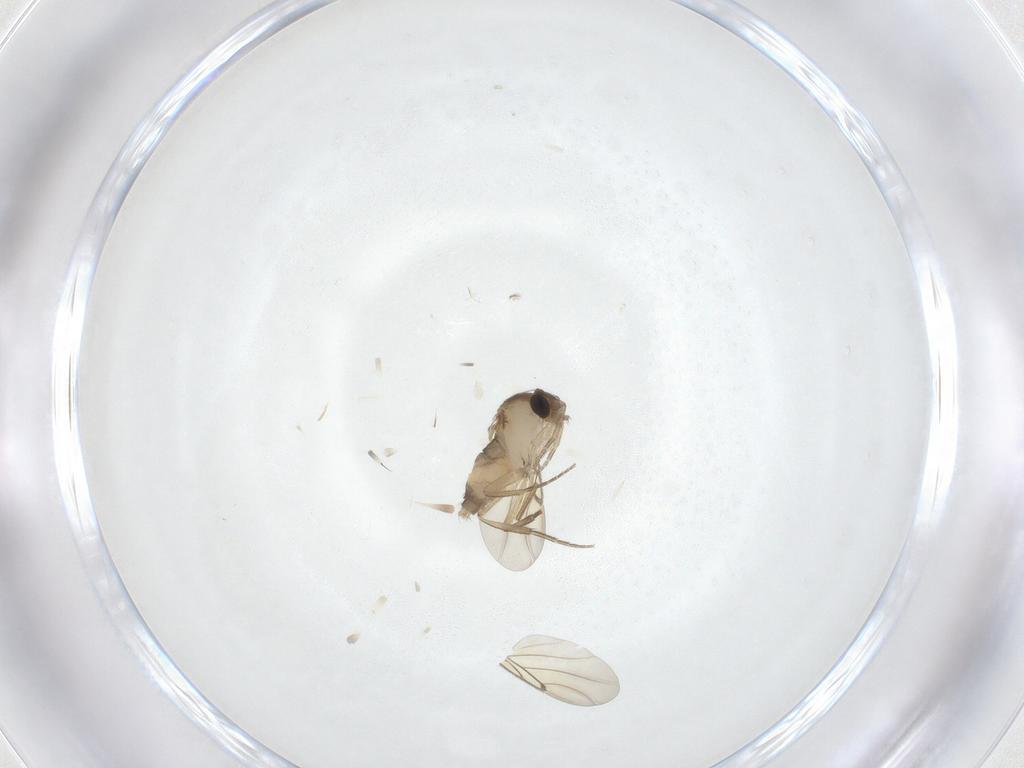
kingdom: Animalia
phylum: Arthropoda
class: Insecta
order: Diptera
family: Phoridae
